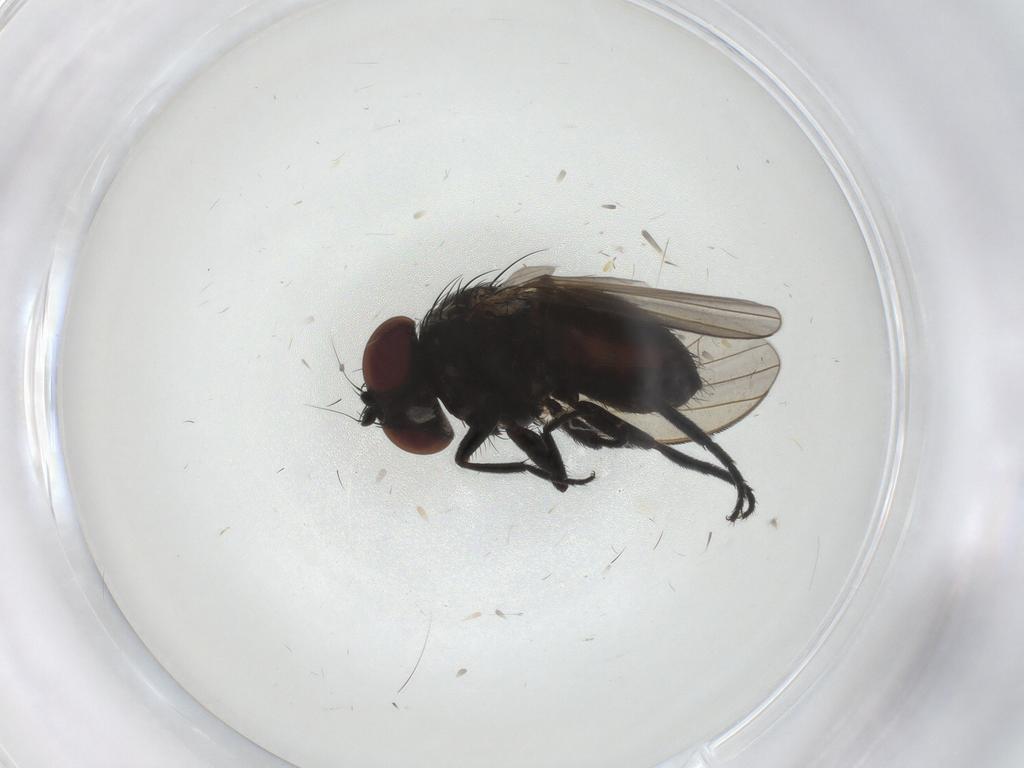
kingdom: Animalia
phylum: Arthropoda
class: Insecta
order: Diptera
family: Milichiidae
